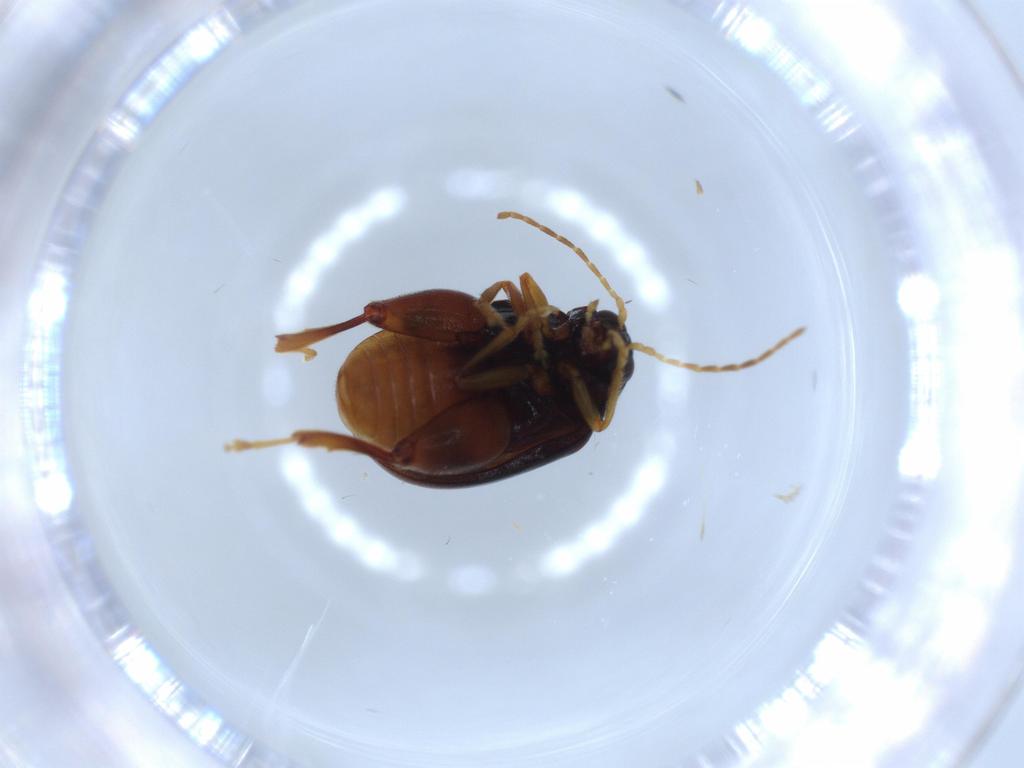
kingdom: Animalia
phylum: Arthropoda
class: Insecta
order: Coleoptera
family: Chrysomelidae
